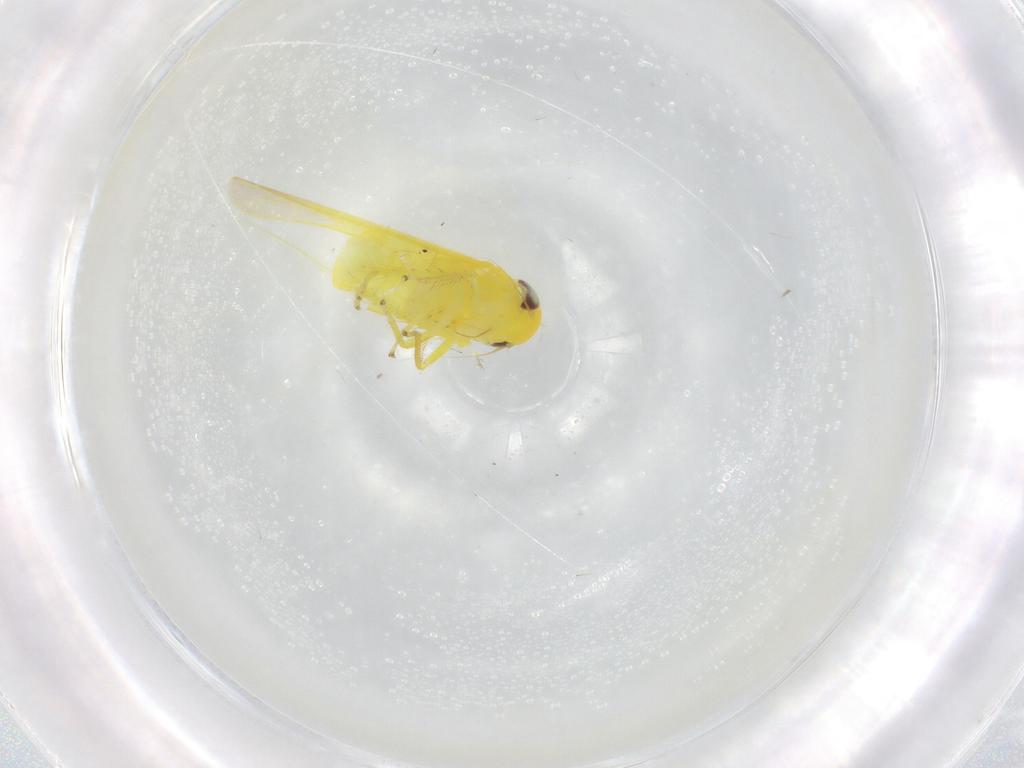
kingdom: Animalia
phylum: Arthropoda
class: Insecta
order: Hemiptera
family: Cicadellidae
